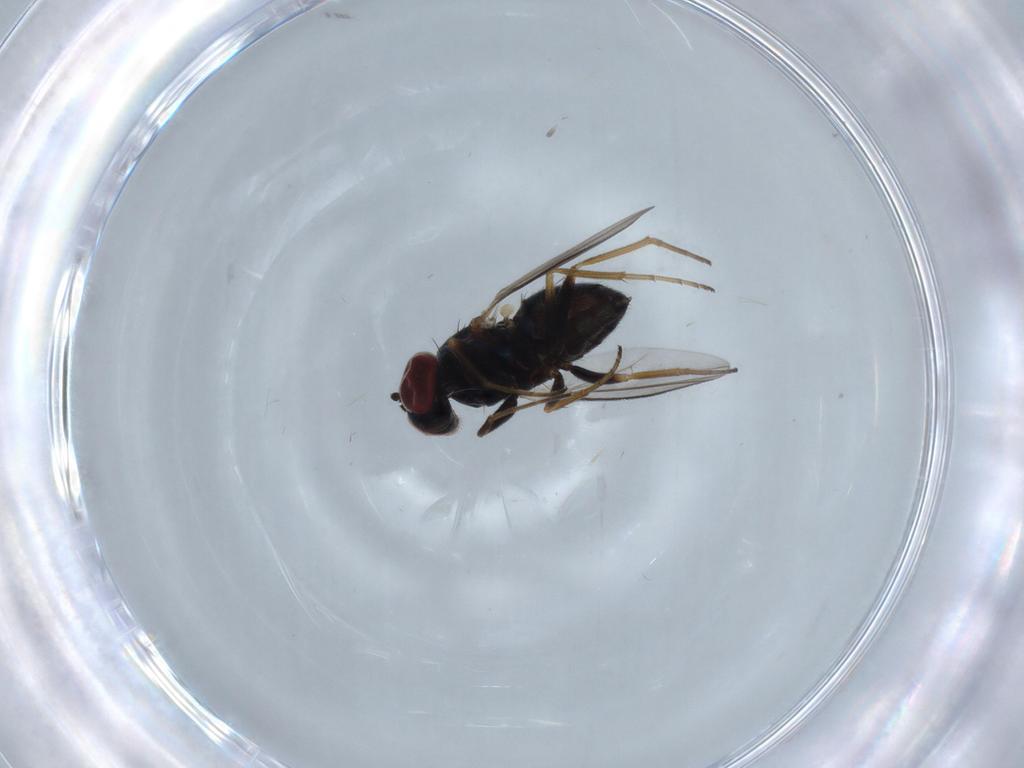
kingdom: Animalia
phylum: Arthropoda
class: Insecta
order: Diptera
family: Dolichopodidae
